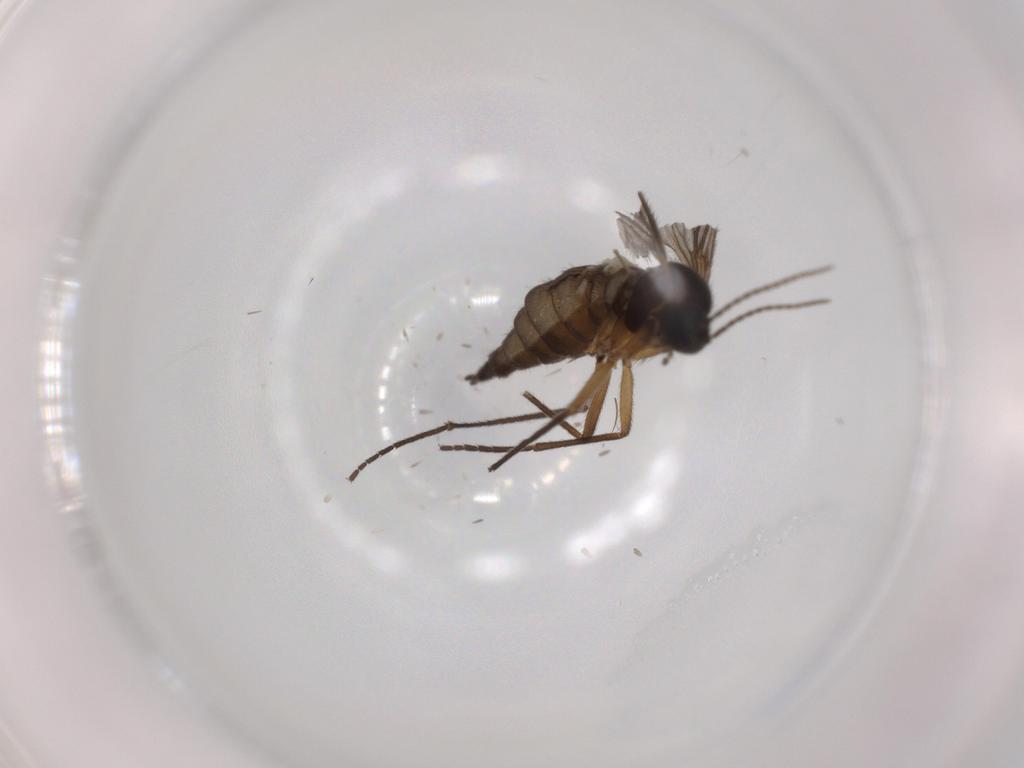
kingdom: Animalia
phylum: Arthropoda
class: Insecta
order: Diptera
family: Sciaridae
